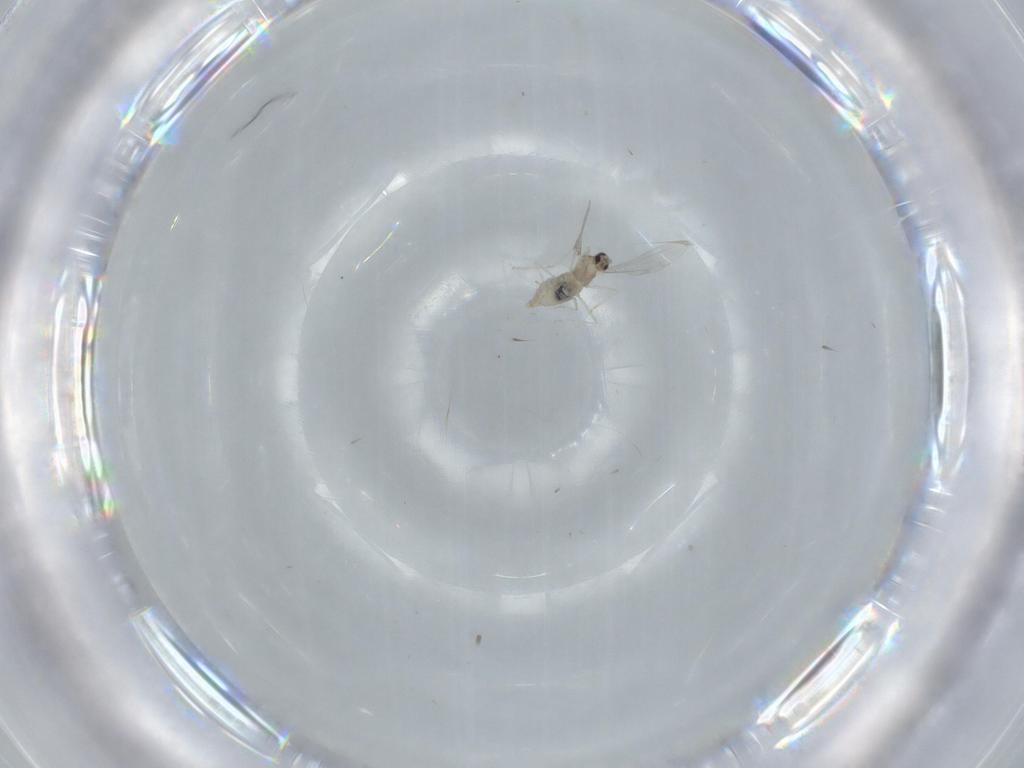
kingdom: Animalia
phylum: Arthropoda
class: Insecta
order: Diptera
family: Cecidomyiidae
